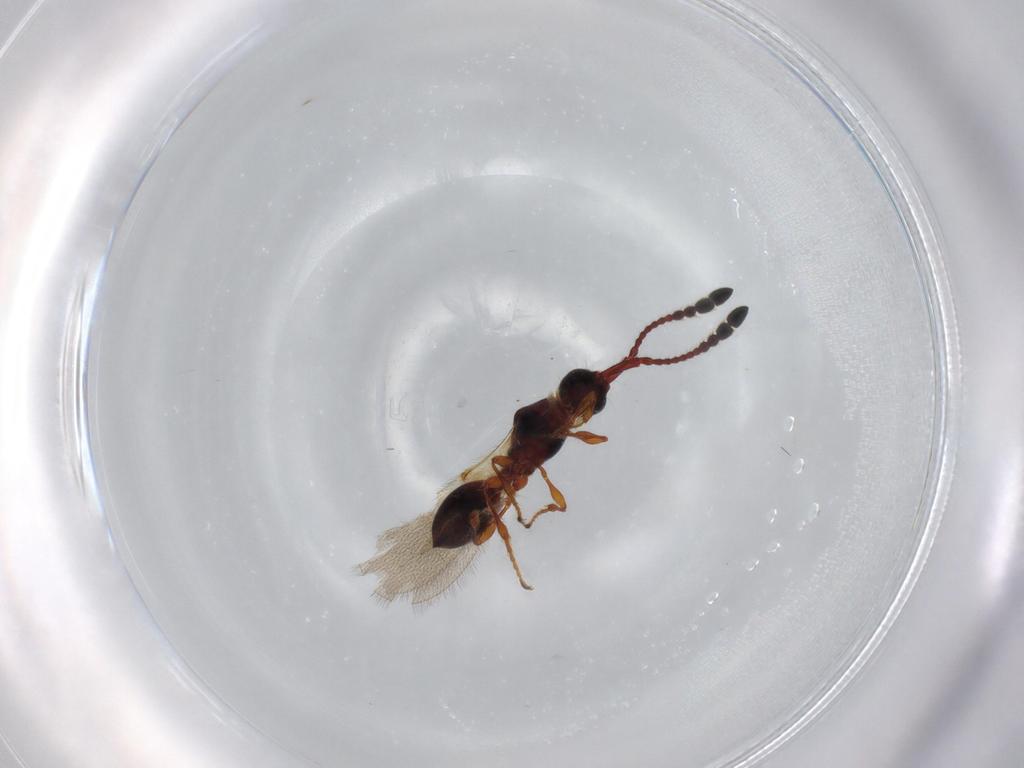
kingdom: Animalia
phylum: Arthropoda
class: Insecta
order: Hymenoptera
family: Diapriidae
